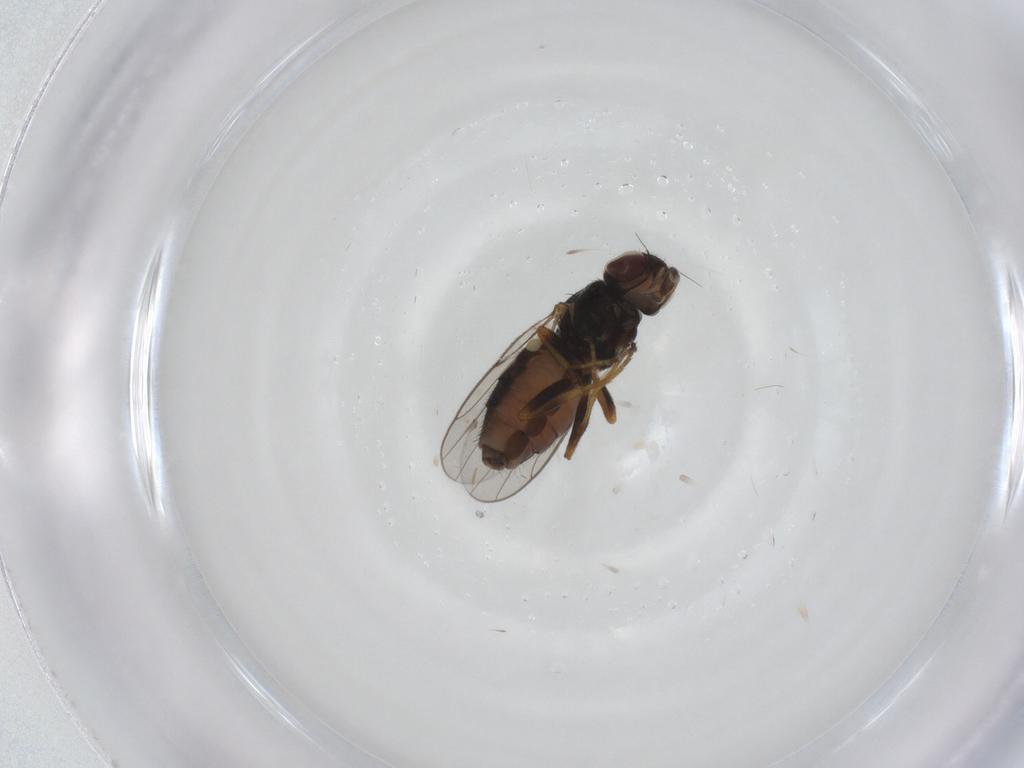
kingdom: Animalia
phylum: Arthropoda
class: Insecta
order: Diptera
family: Chloropidae
